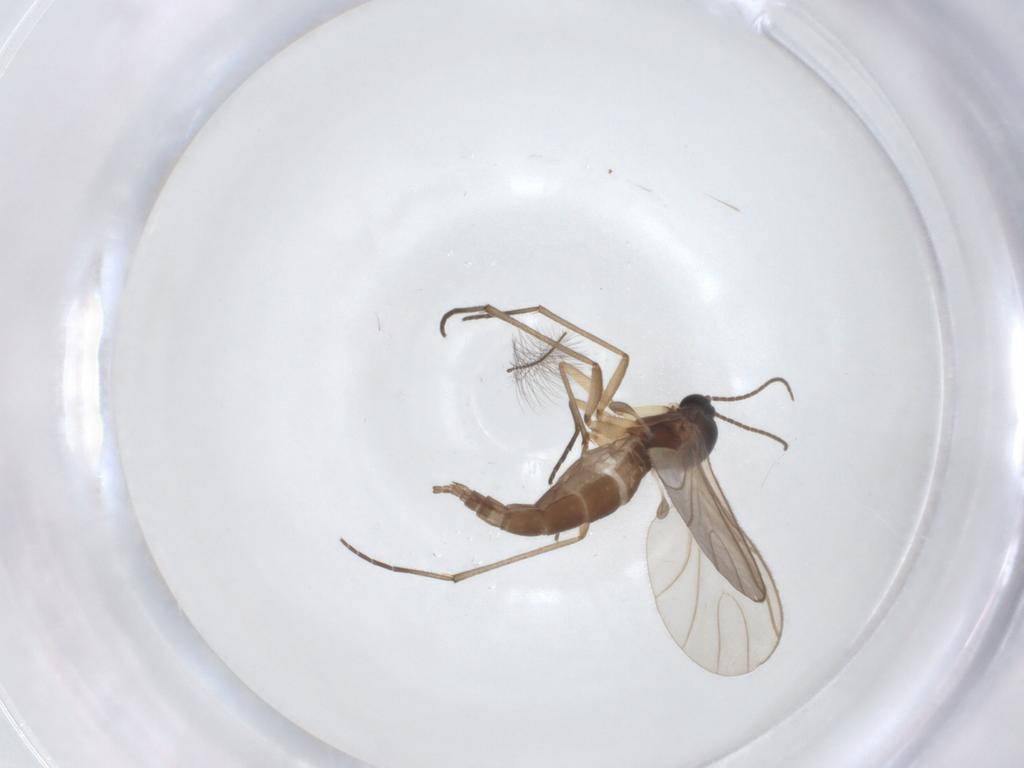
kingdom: Animalia
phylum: Arthropoda
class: Insecta
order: Diptera
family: Sciaridae
